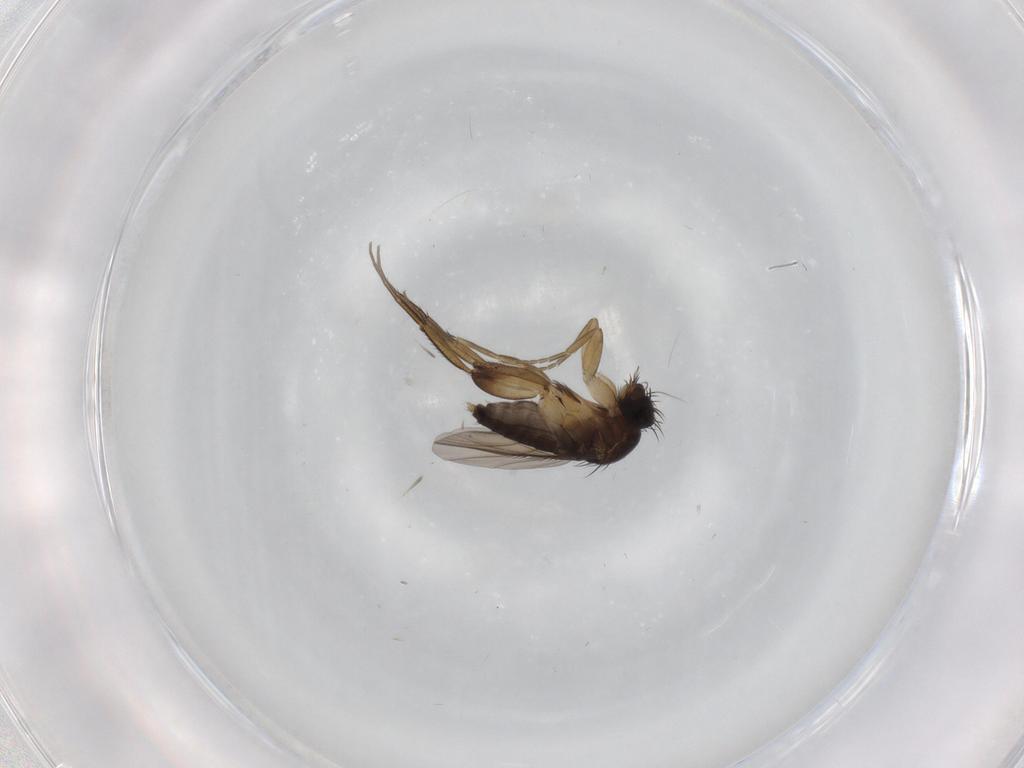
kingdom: Animalia
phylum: Arthropoda
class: Insecta
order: Diptera
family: Phoridae
